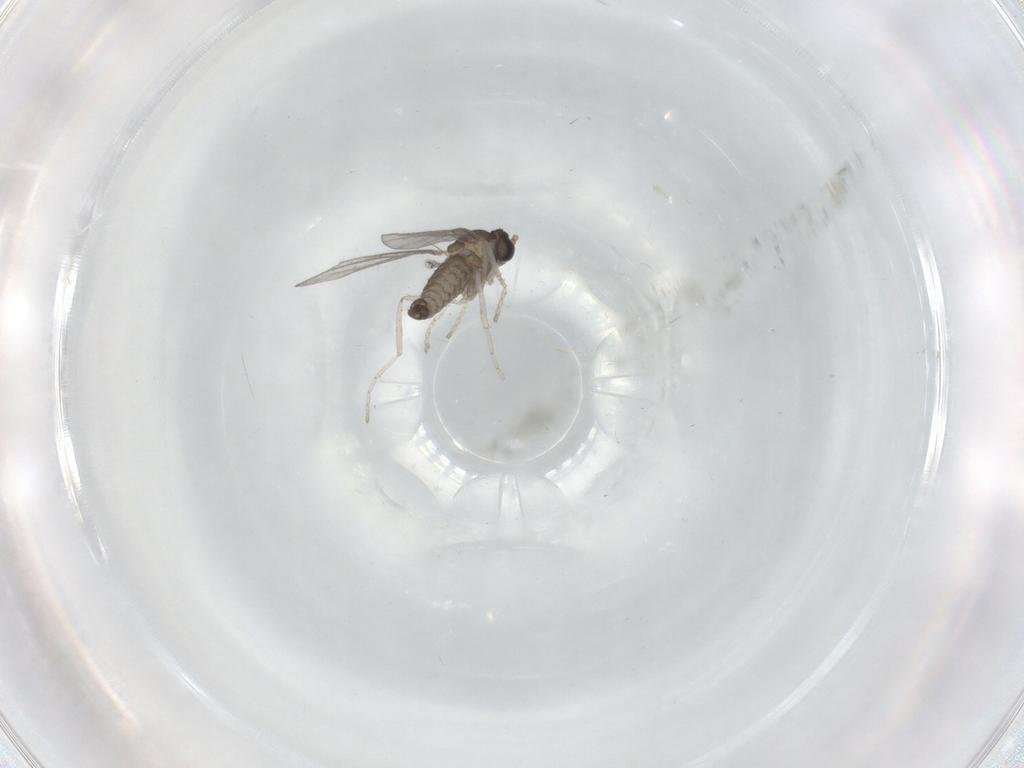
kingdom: Animalia
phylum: Arthropoda
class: Insecta
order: Diptera
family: Cecidomyiidae
